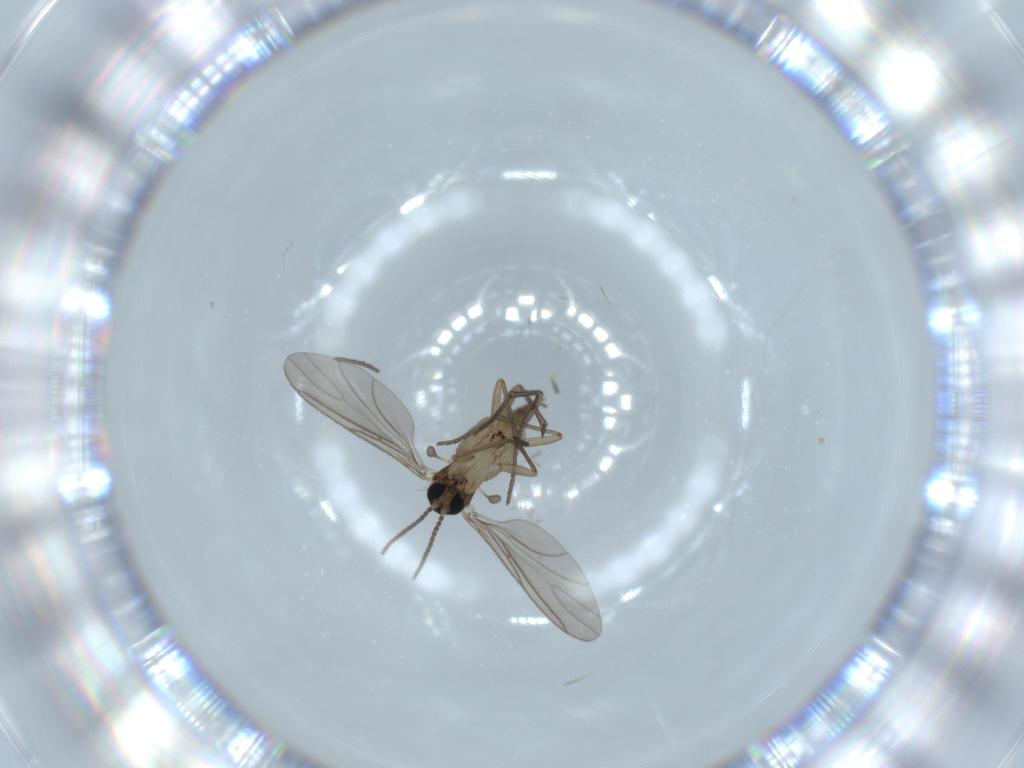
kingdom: Animalia
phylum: Arthropoda
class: Insecta
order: Diptera
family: Sciaridae
